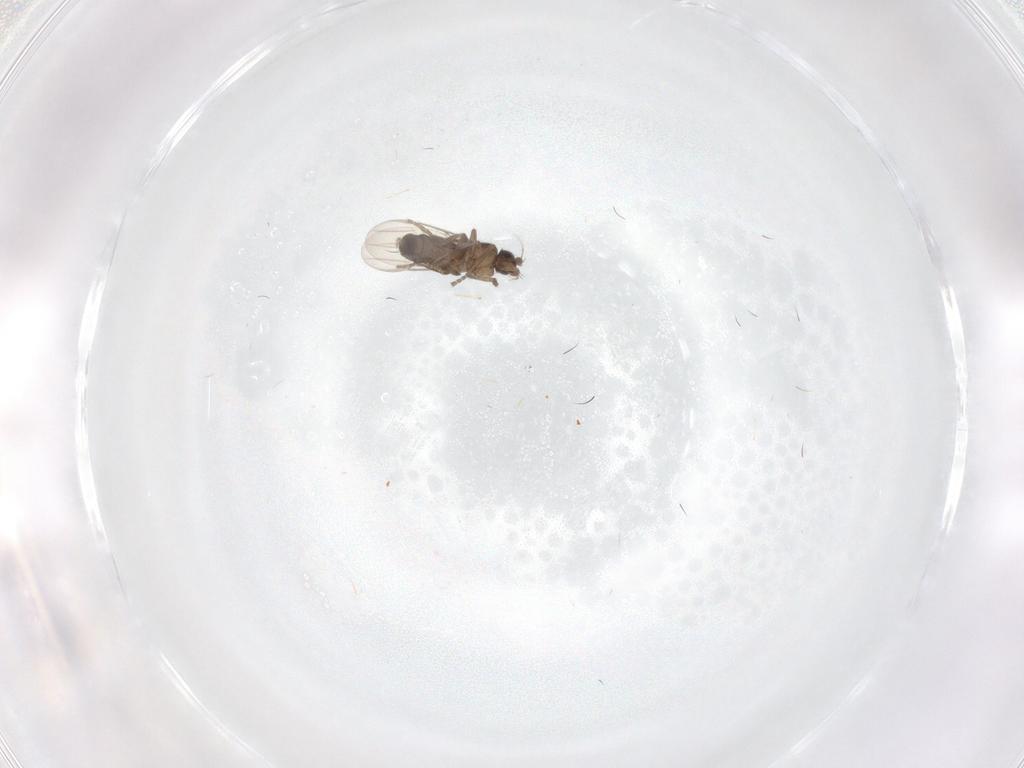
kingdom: Animalia
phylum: Arthropoda
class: Insecta
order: Diptera
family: Phoridae
